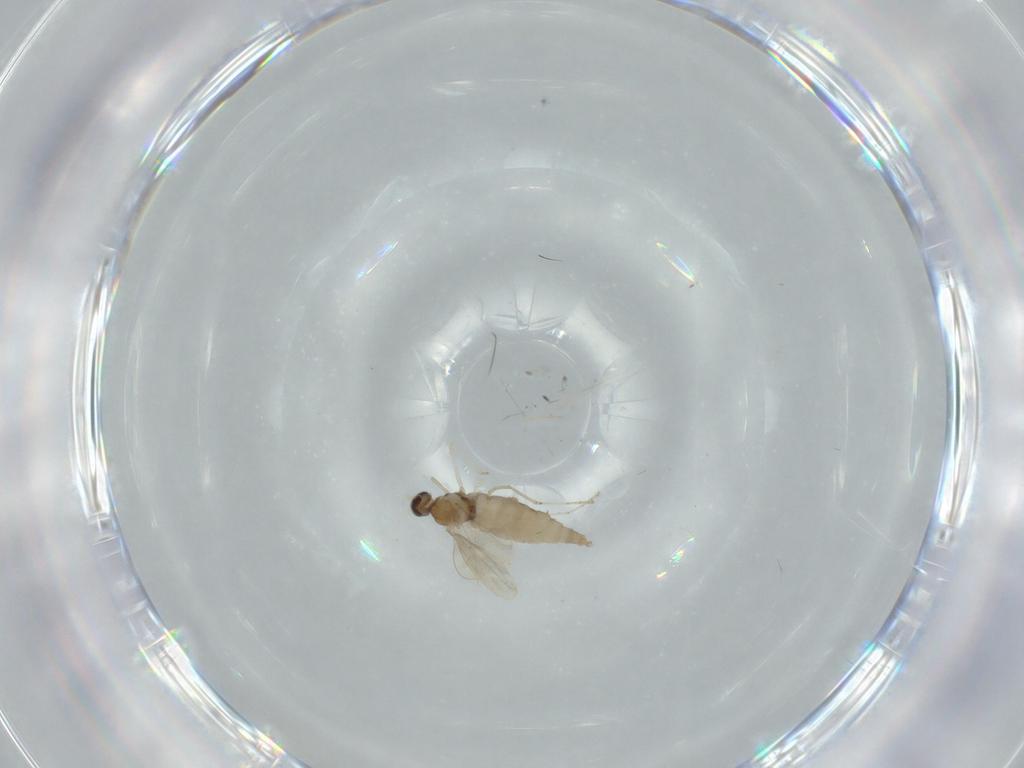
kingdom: Animalia
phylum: Arthropoda
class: Insecta
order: Diptera
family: Cecidomyiidae
